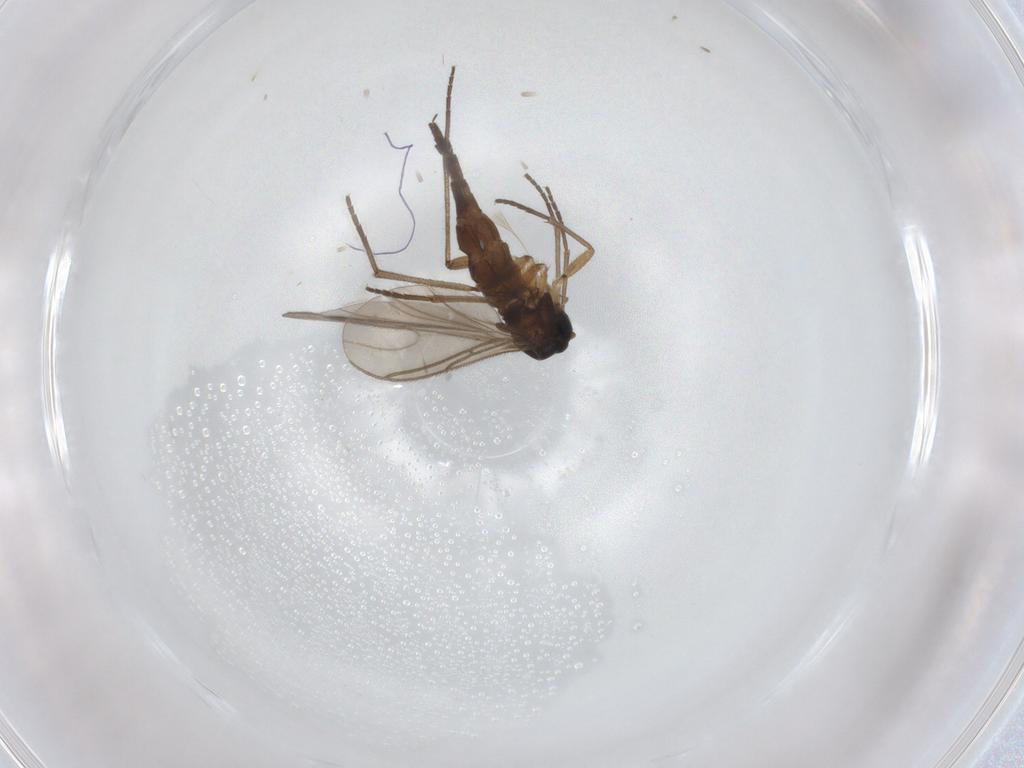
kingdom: Animalia
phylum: Arthropoda
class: Insecta
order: Diptera
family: Sciaridae
